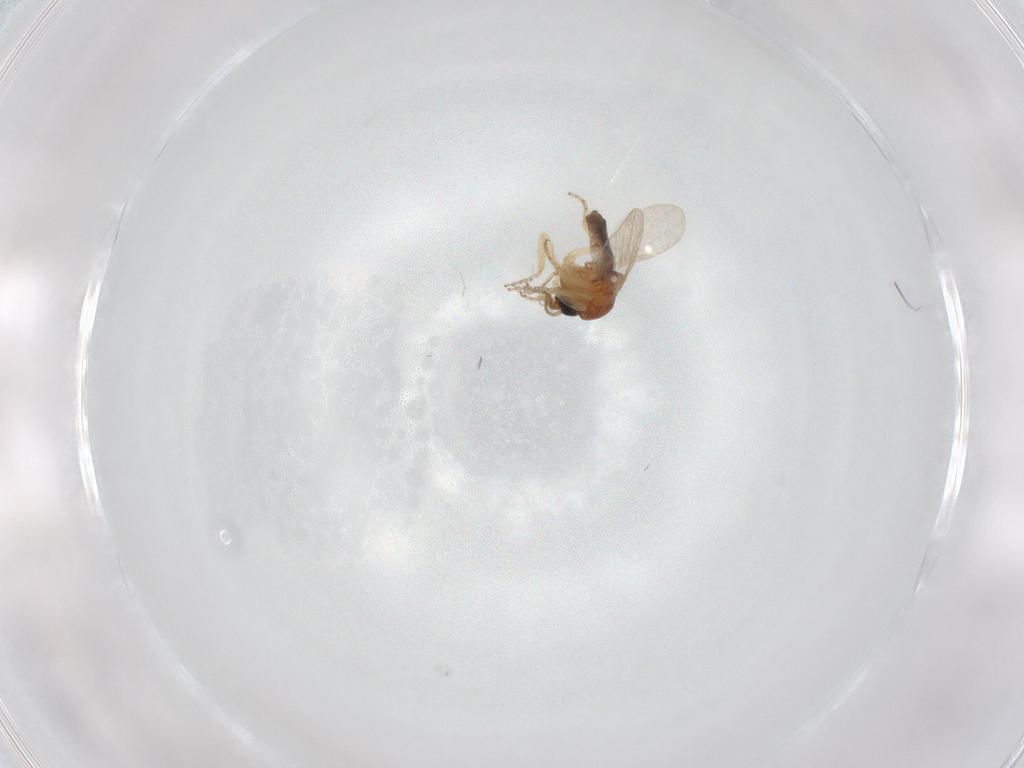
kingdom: Animalia
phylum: Arthropoda
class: Insecta
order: Diptera
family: Ceratopogonidae
